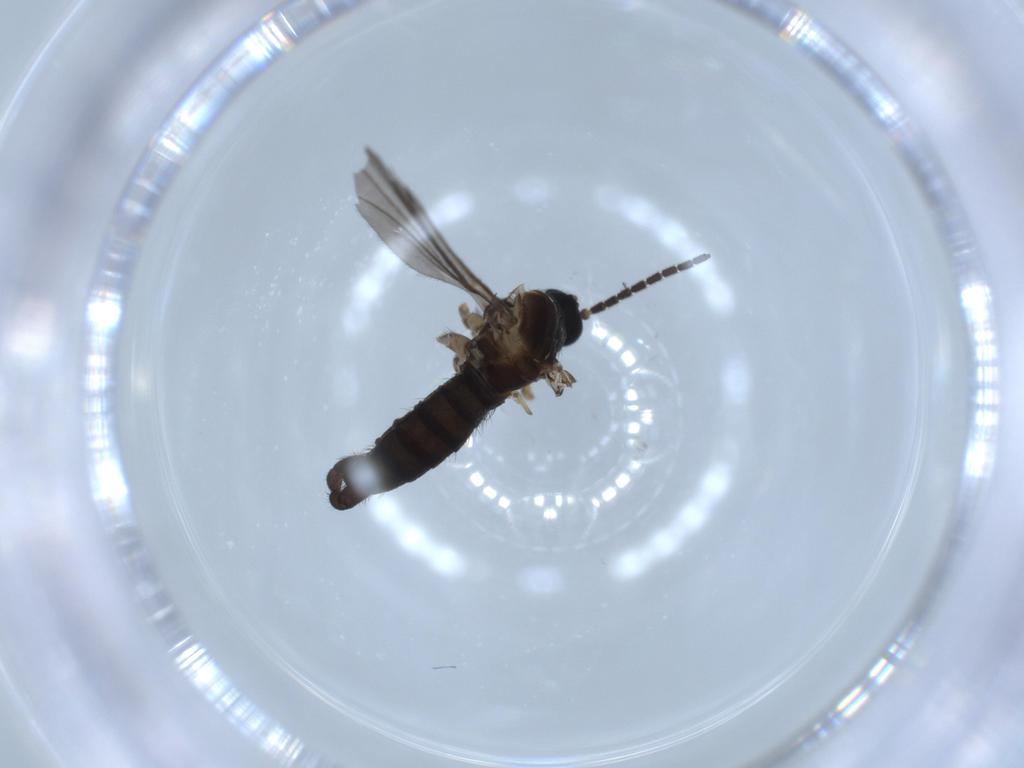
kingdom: Animalia
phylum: Arthropoda
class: Insecta
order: Diptera
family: Sciaridae
